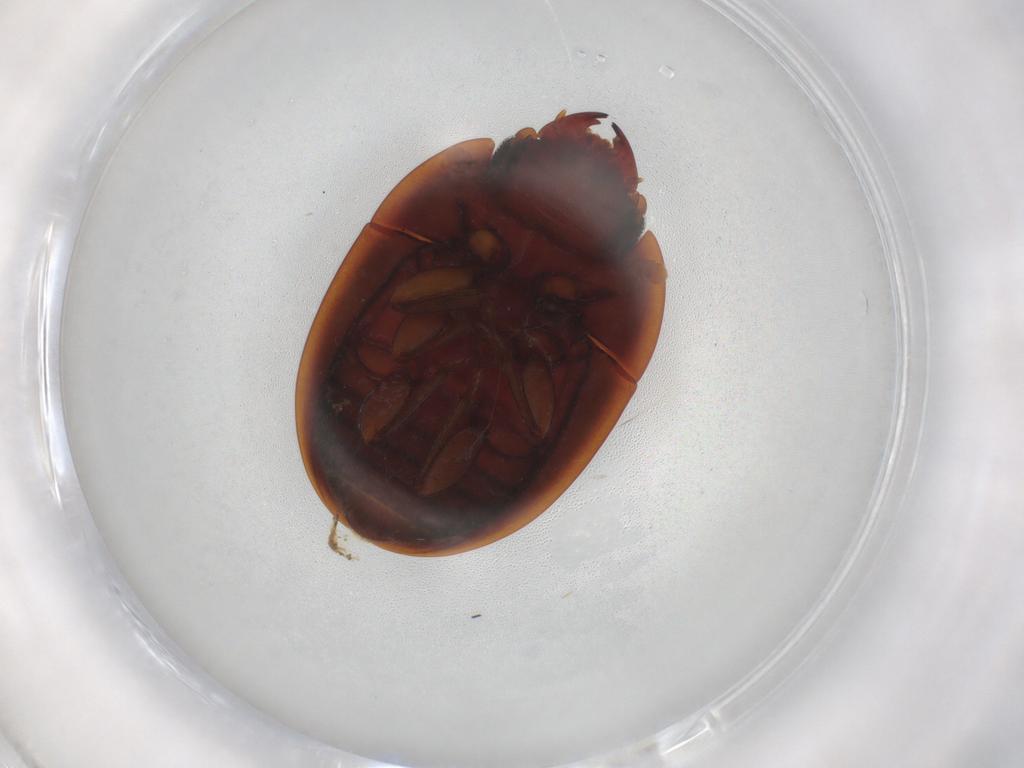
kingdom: Animalia
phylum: Arthropoda
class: Insecta
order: Coleoptera
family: Nitidulidae
